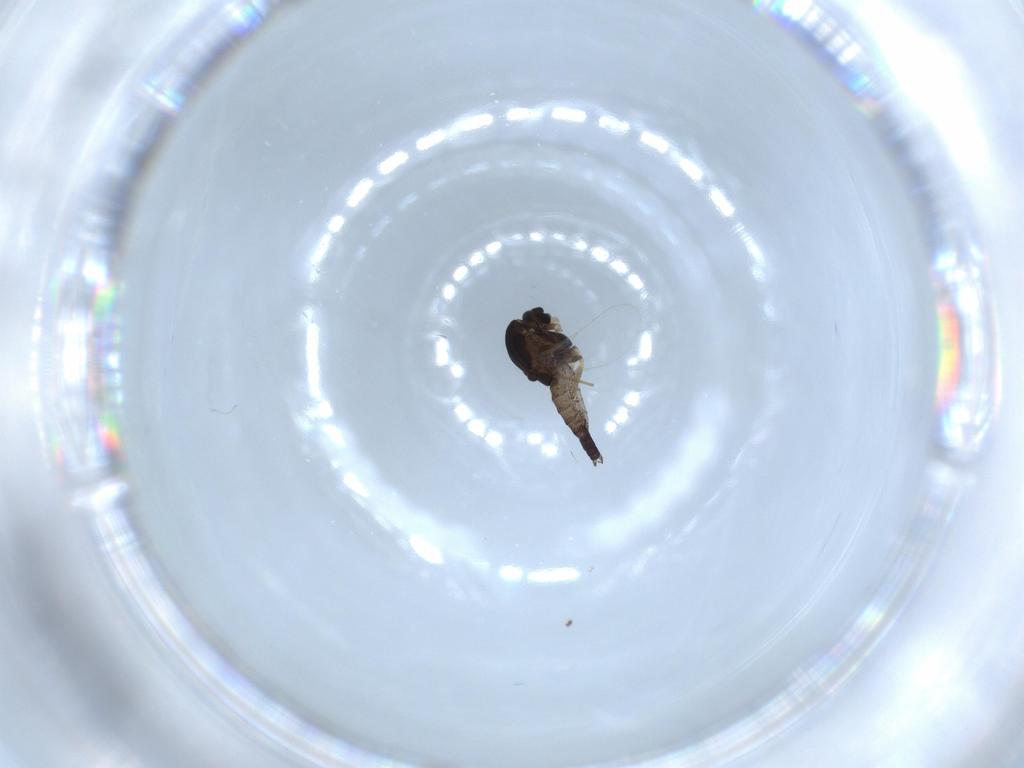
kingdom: Animalia
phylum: Arthropoda
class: Insecta
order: Diptera
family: Chironomidae
